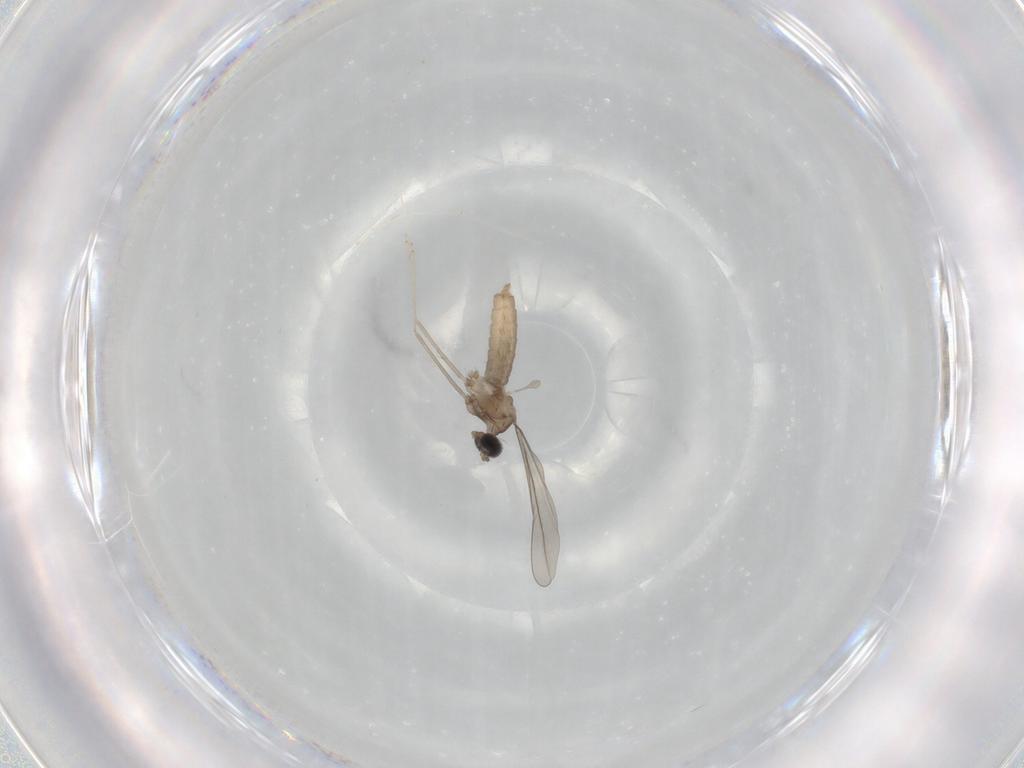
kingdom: Animalia
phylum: Arthropoda
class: Insecta
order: Diptera
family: Cecidomyiidae
